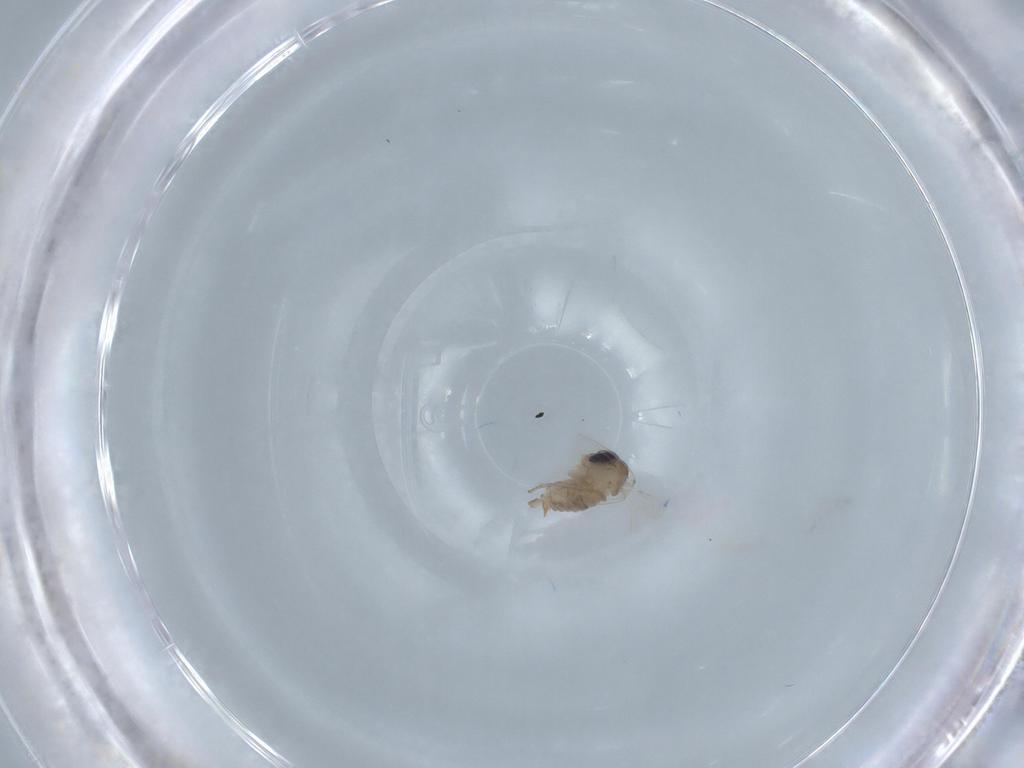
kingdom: Animalia
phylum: Arthropoda
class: Insecta
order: Diptera
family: Psychodidae
